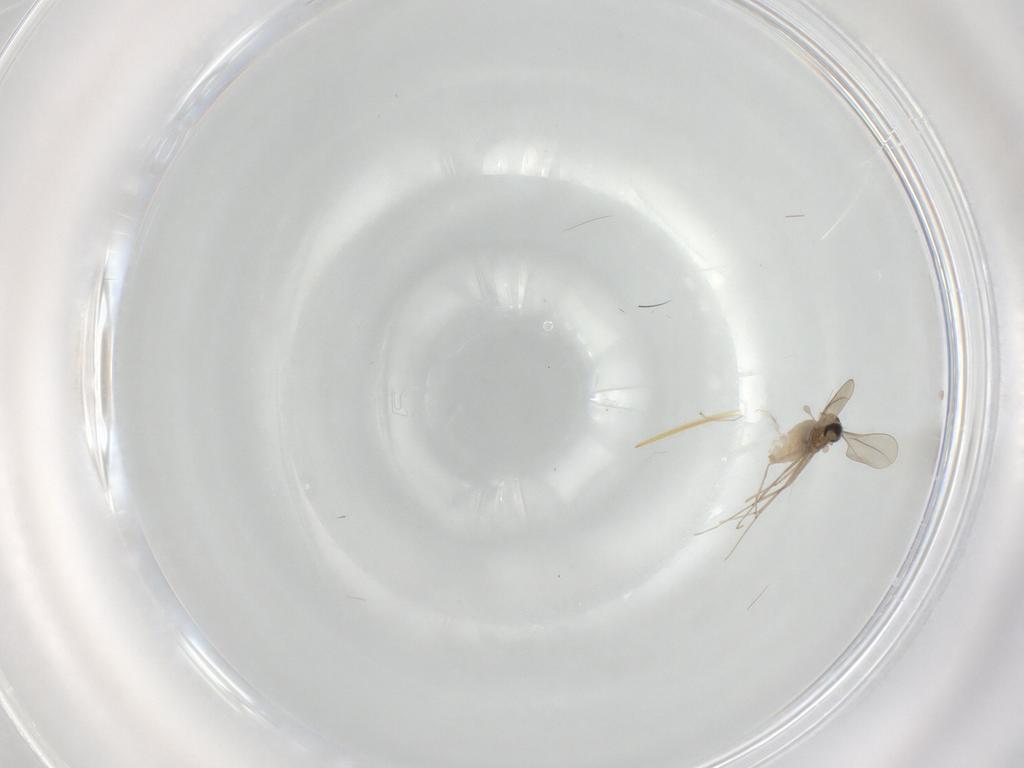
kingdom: Animalia
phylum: Arthropoda
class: Insecta
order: Diptera
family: Cecidomyiidae
